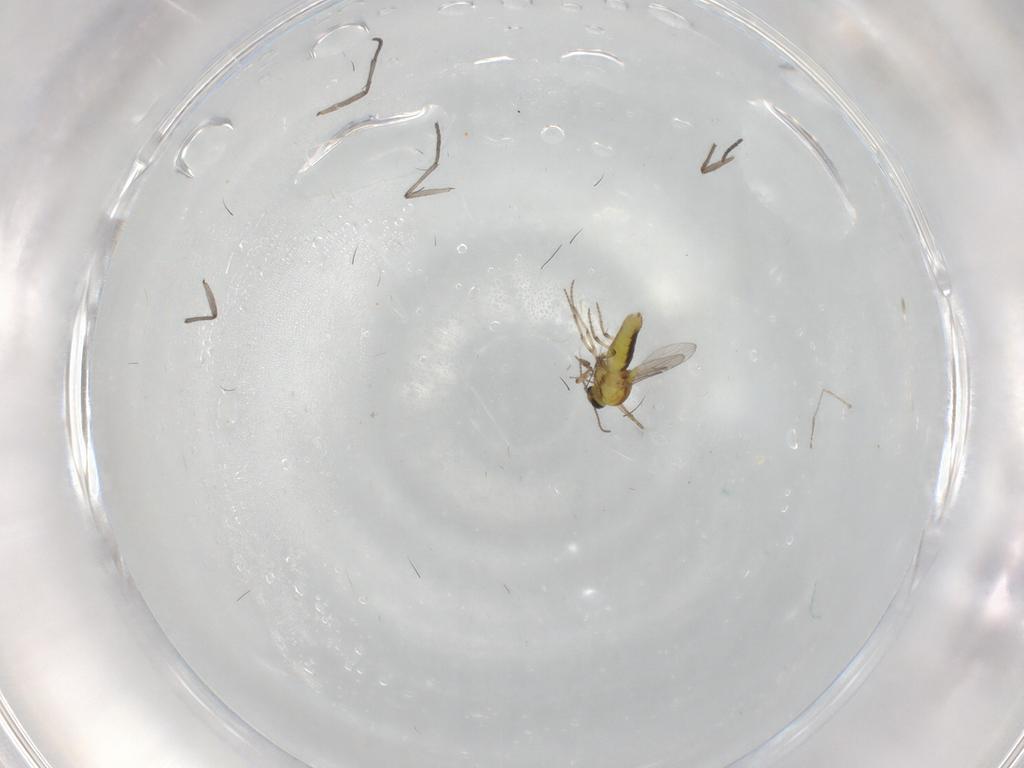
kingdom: Animalia
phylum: Arthropoda
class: Insecta
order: Diptera
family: Ceratopogonidae
